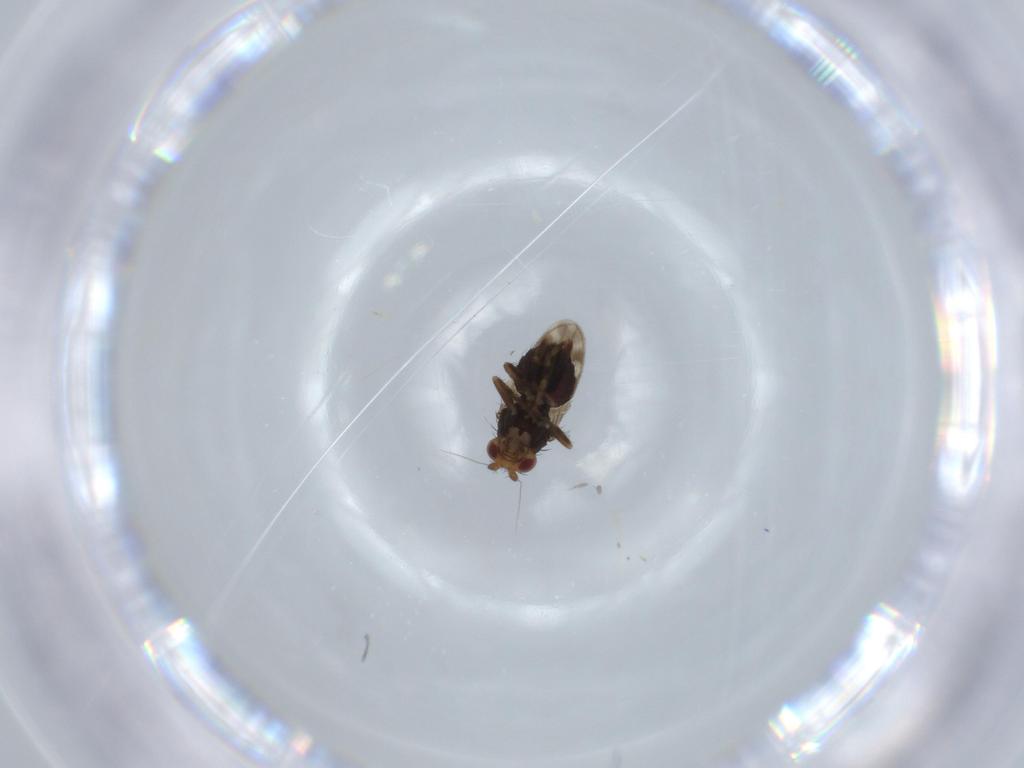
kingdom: Animalia
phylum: Arthropoda
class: Insecta
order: Diptera
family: Sphaeroceridae
